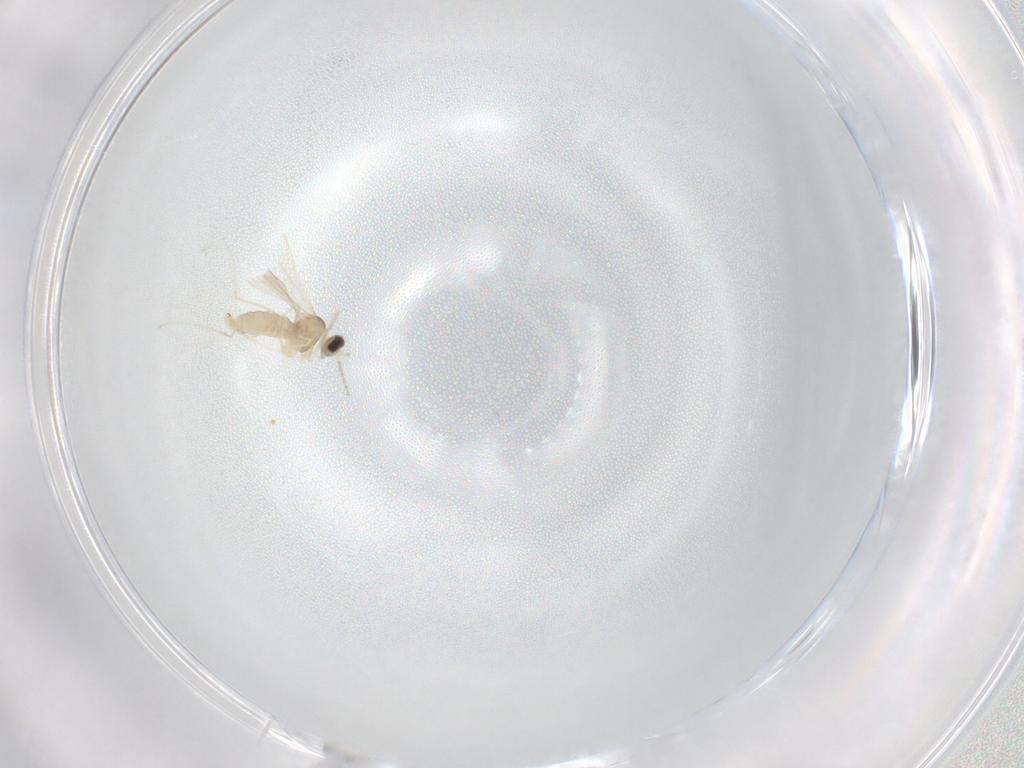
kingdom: Animalia
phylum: Arthropoda
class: Insecta
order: Diptera
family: Cecidomyiidae
